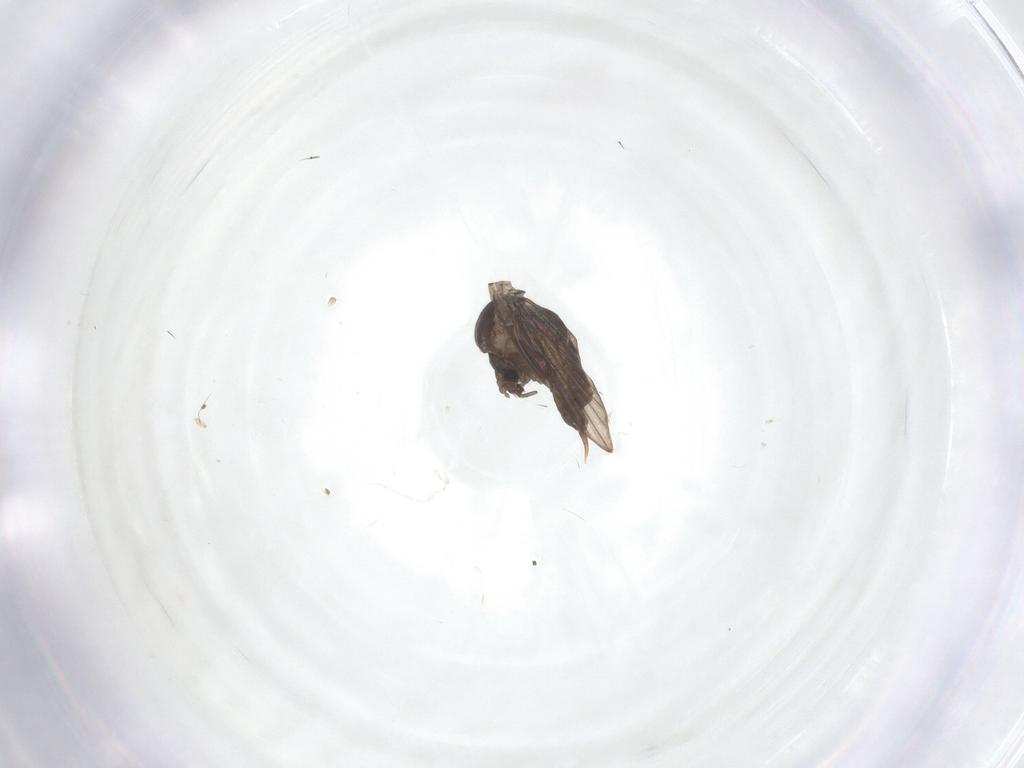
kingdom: Animalia
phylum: Arthropoda
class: Insecta
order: Diptera
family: Psychodidae
